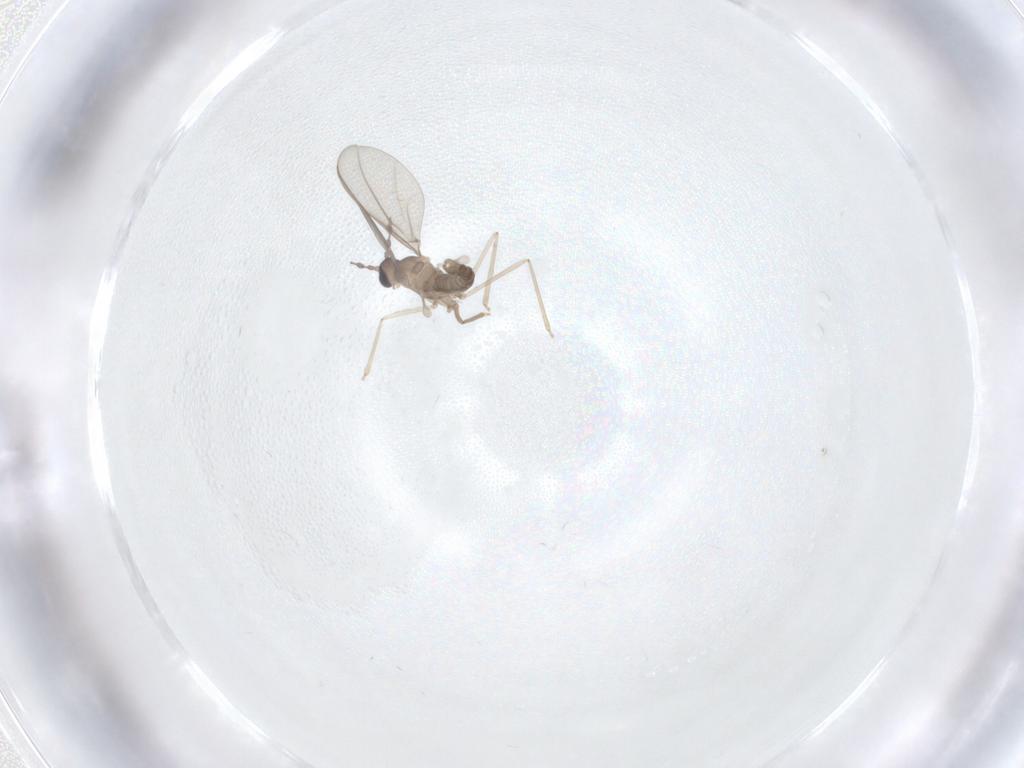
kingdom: Animalia
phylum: Arthropoda
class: Insecta
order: Diptera
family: Cecidomyiidae
